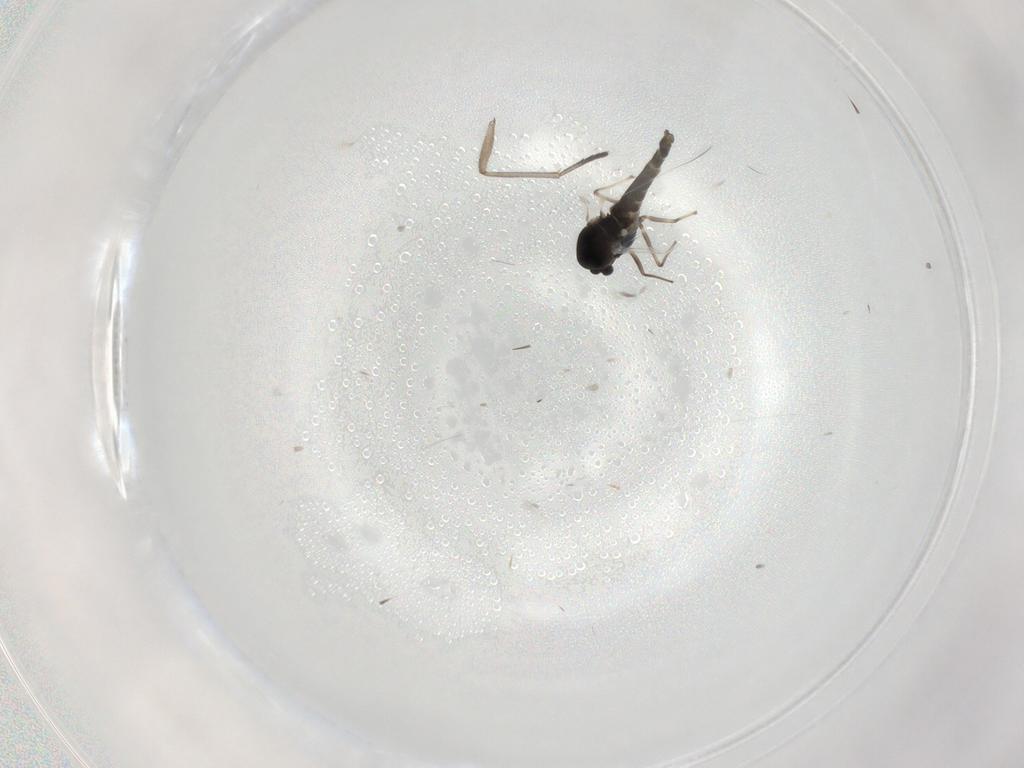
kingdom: Animalia
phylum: Arthropoda
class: Insecta
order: Diptera
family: Chironomidae
